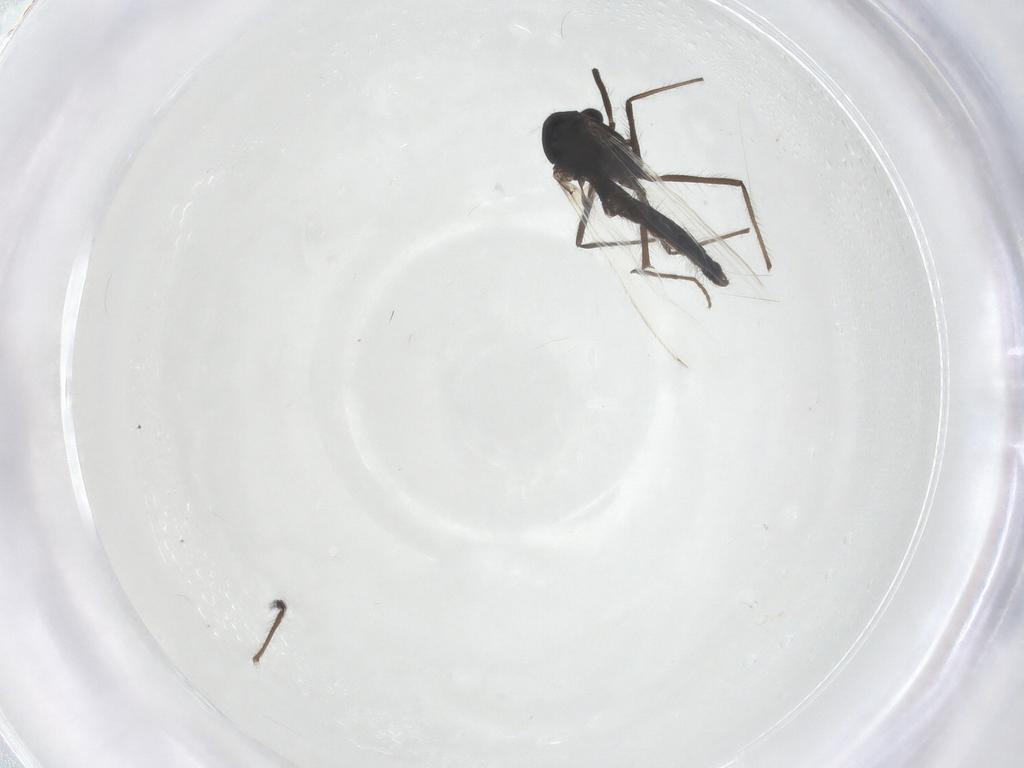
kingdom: Animalia
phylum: Arthropoda
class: Insecta
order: Diptera
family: Chironomidae
